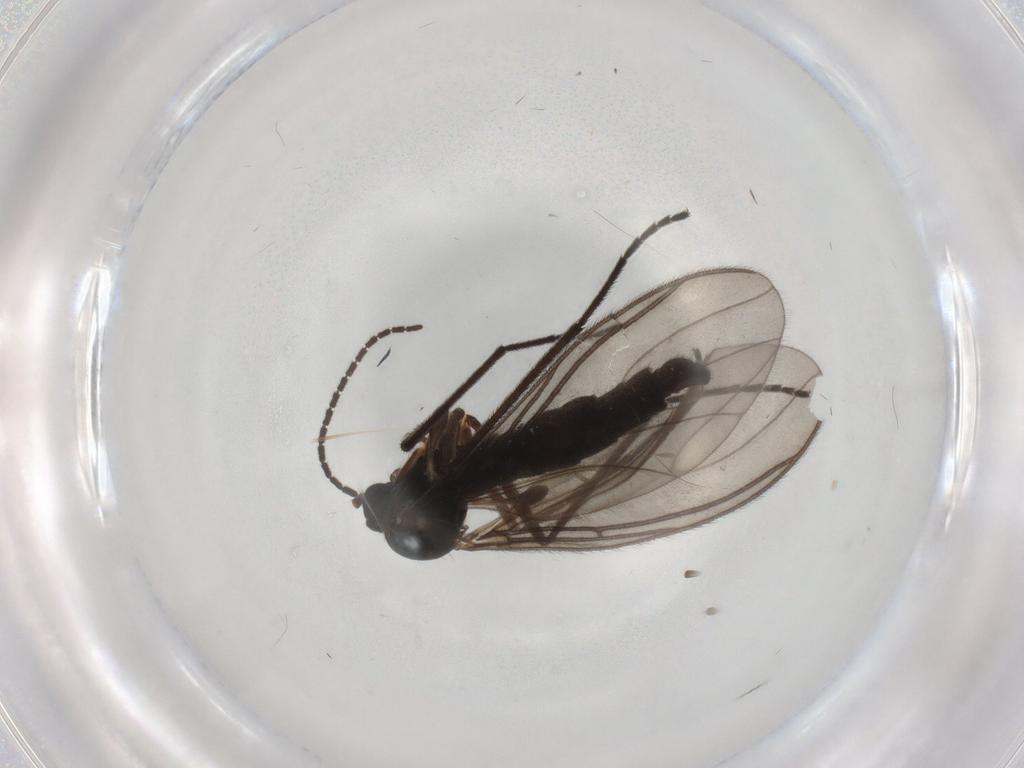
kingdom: Animalia
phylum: Arthropoda
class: Insecta
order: Diptera
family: Sciaridae
